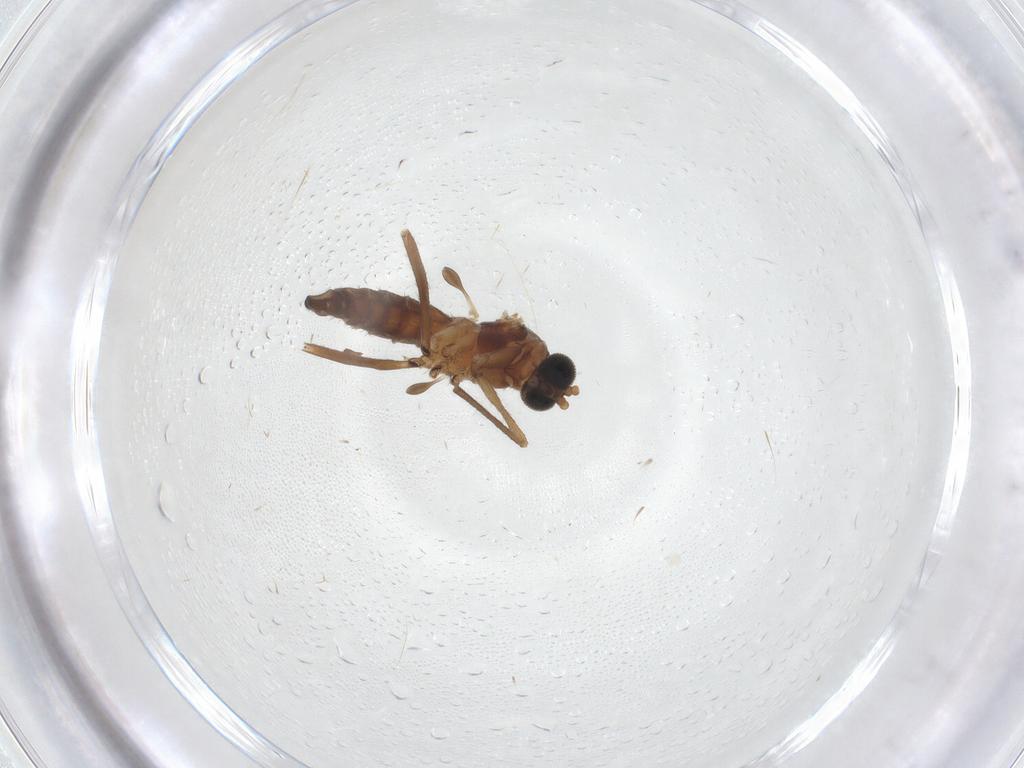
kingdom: Animalia
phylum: Arthropoda
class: Insecta
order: Diptera
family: Sciaridae
